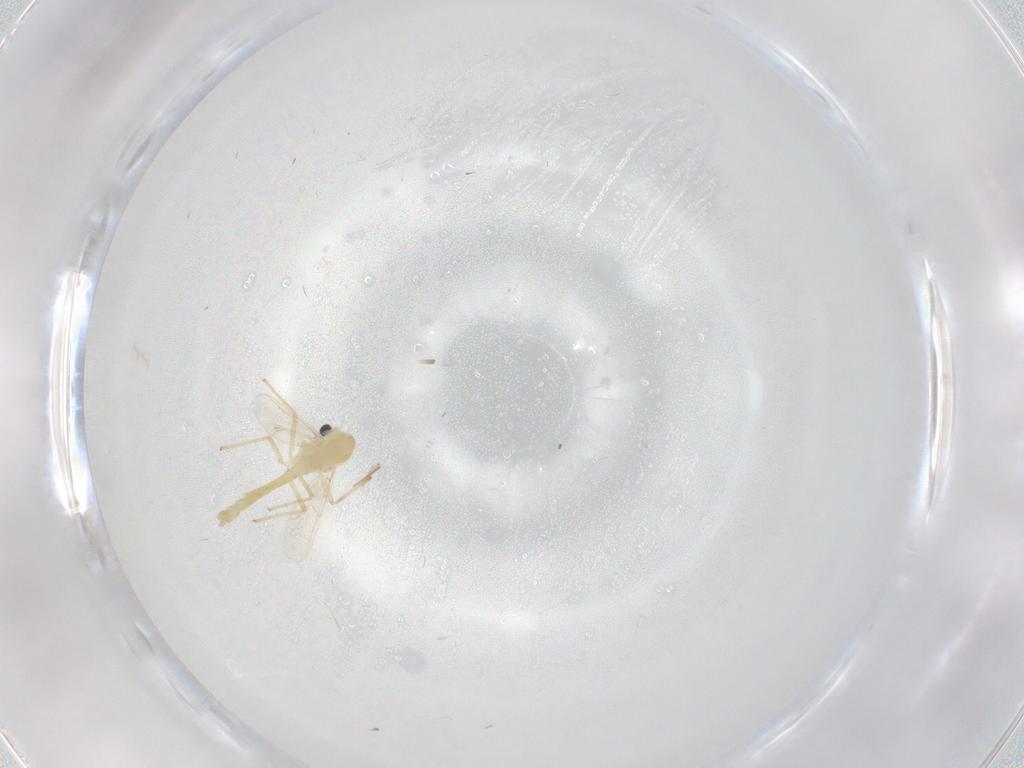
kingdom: Animalia
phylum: Arthropoda
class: Insecta
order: Diptera
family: Chironomidae
